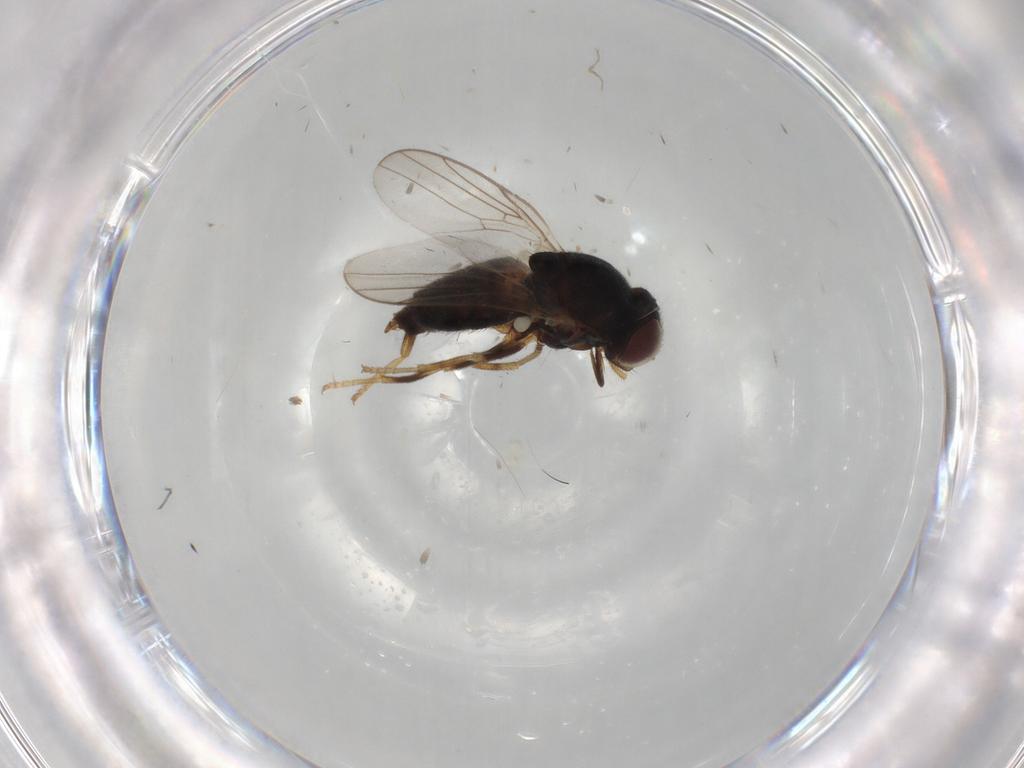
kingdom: Animalia
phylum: Arthropoda
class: Insecta
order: Diptera
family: Chloropidae
